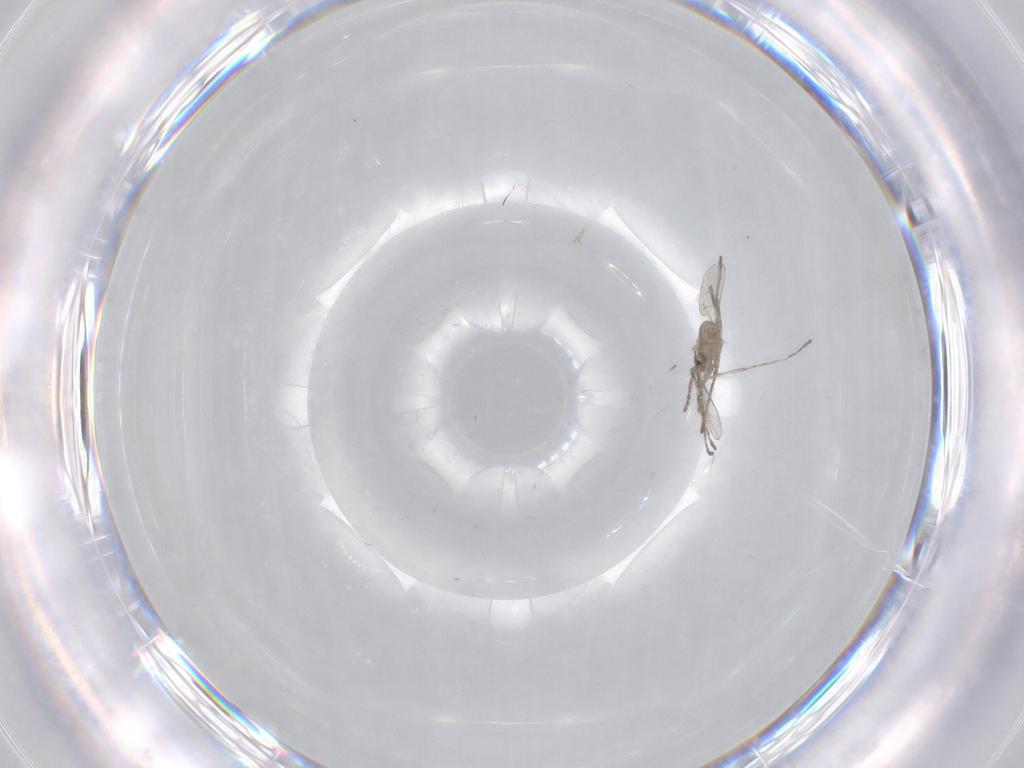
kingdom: Animalia
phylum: Arthropoda
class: Insecta
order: Diptera
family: Cecidomyiidae
